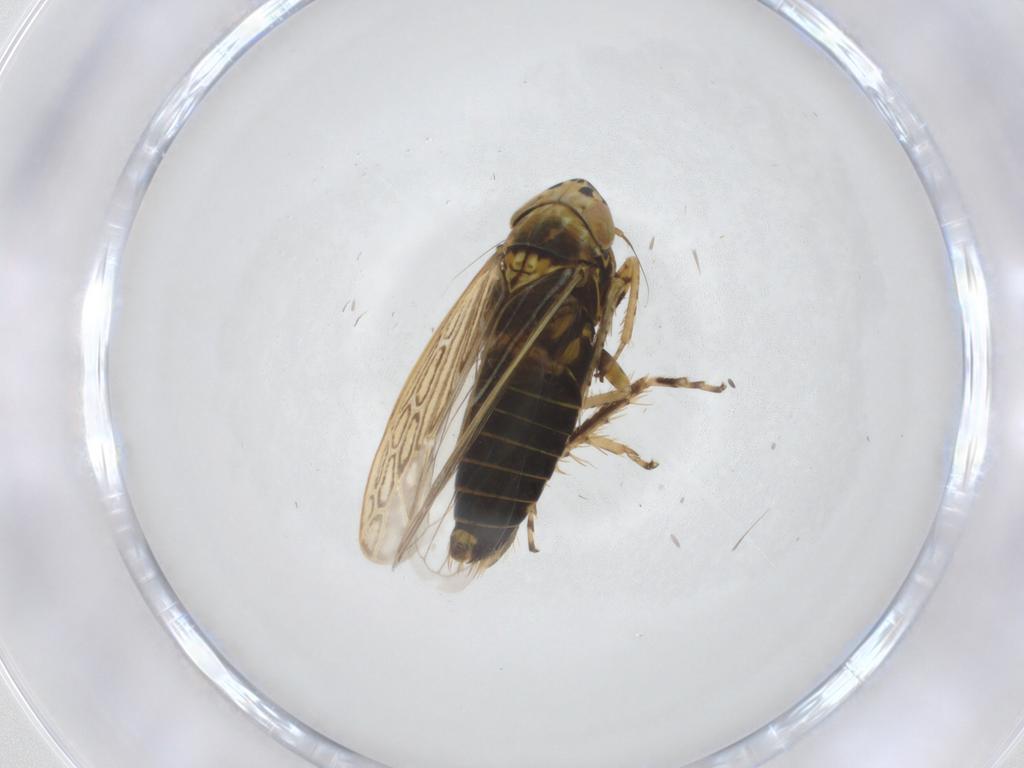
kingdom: Animalia
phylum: Arthropoda
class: Insecta
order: Hemiptera
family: Cicadellidae
